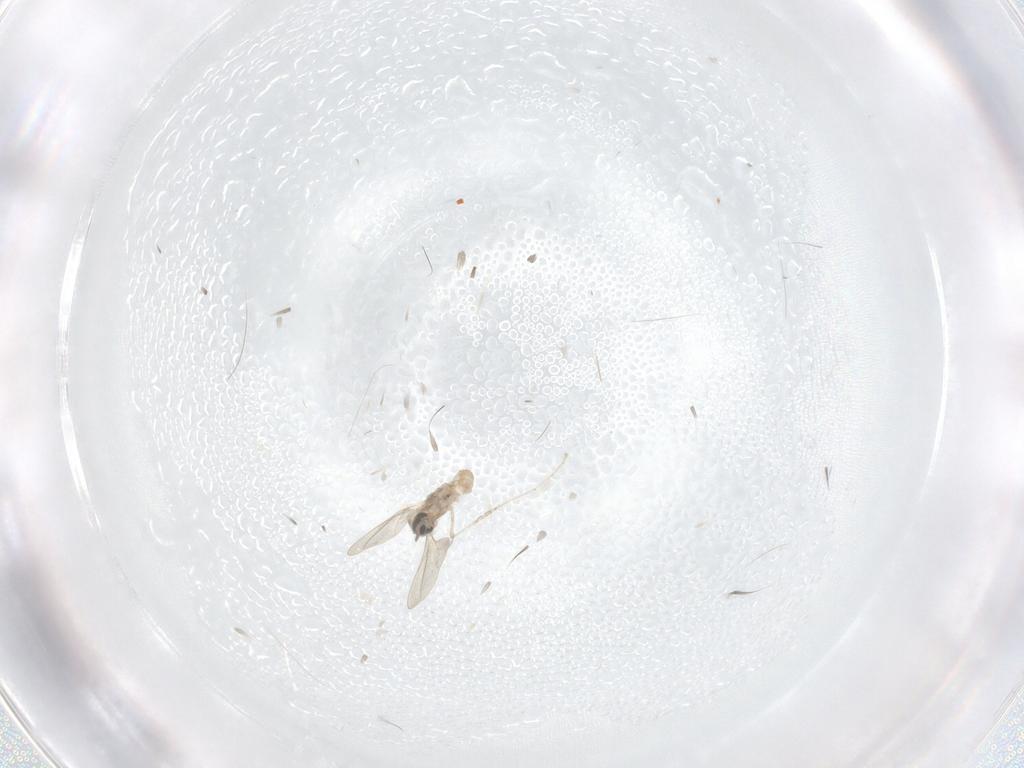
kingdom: Animalia
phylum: Arthropoda
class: Insecta
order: Diptera
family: Cecidomyiidae
